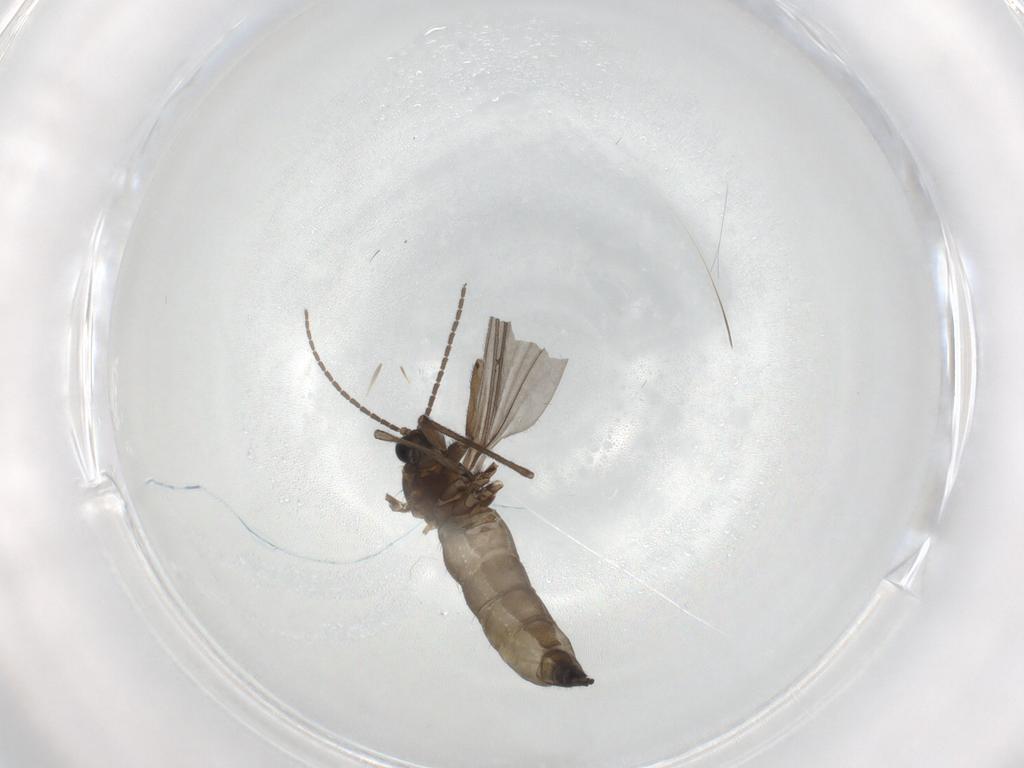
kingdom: Animalia
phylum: Arthropoda
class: Insecta
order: Diptera
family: Sciaridae
